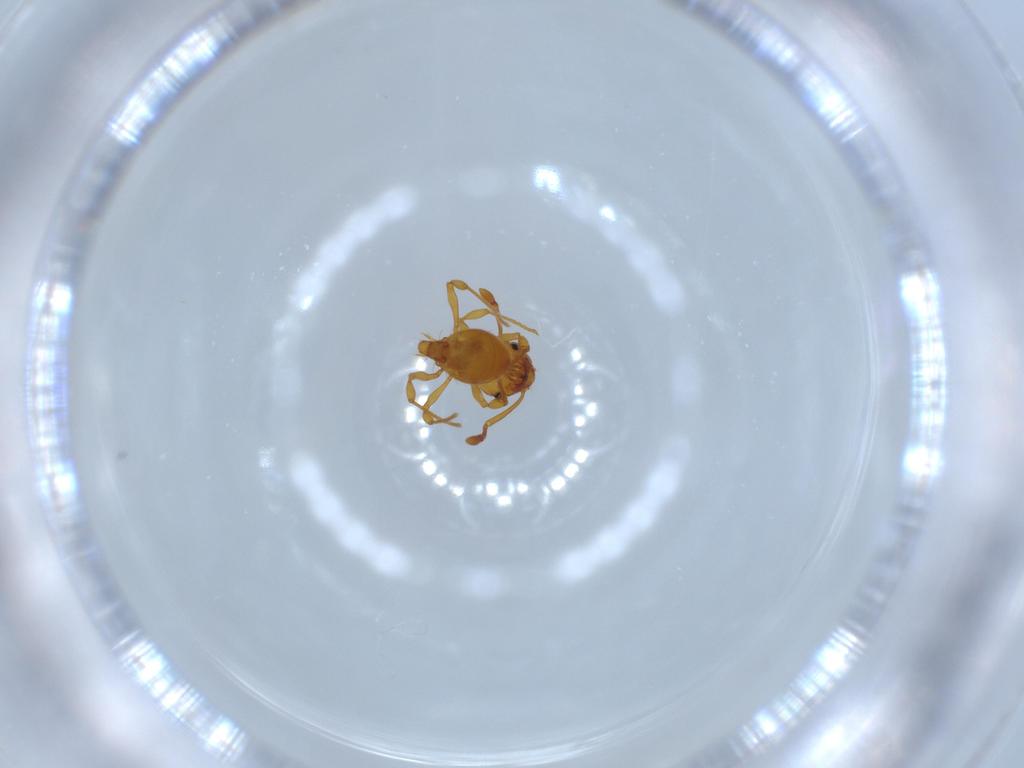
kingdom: Animalia
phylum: Arthropoda
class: Insecta
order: Hymenoptera
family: Formicidae
